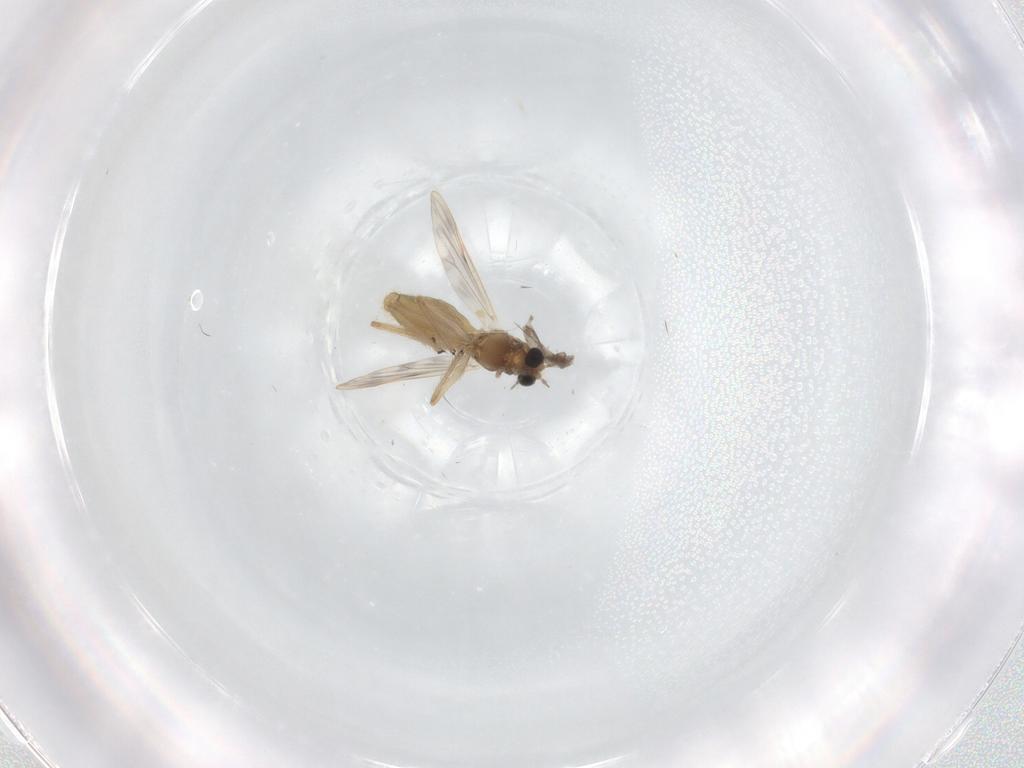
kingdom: Animalia
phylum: Arthropoda
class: Insecta
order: Diptera
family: Chironomidae
